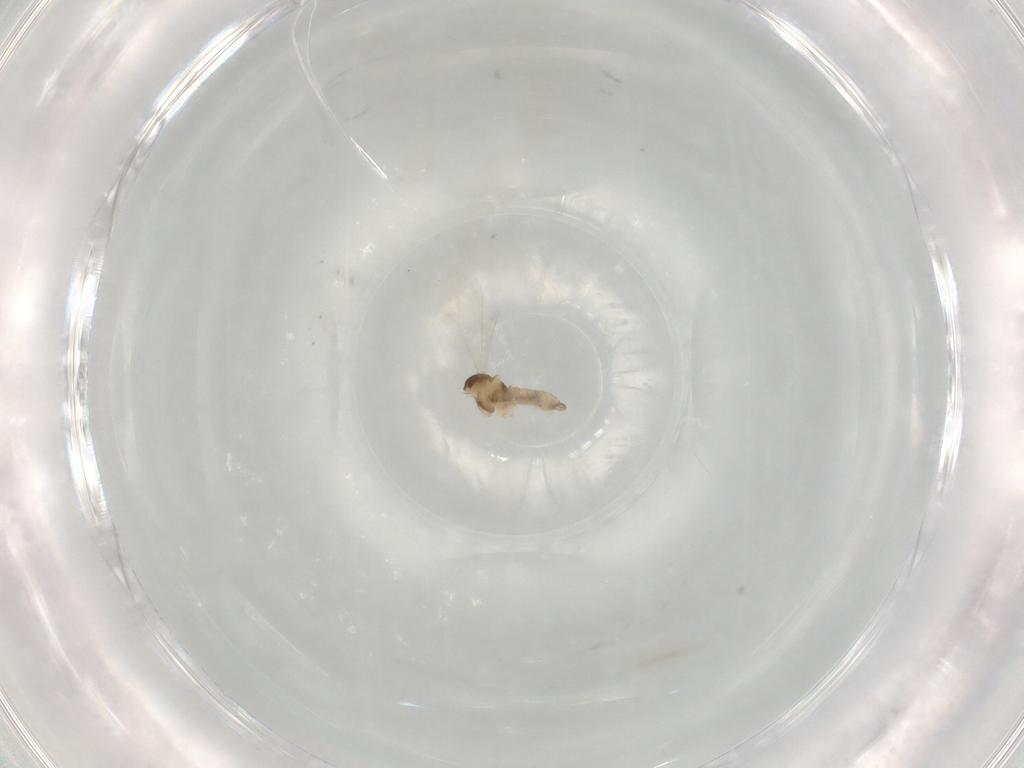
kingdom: Animalia
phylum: Arthropoda
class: Insecta
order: Diptera
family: Cecidomyiidae
